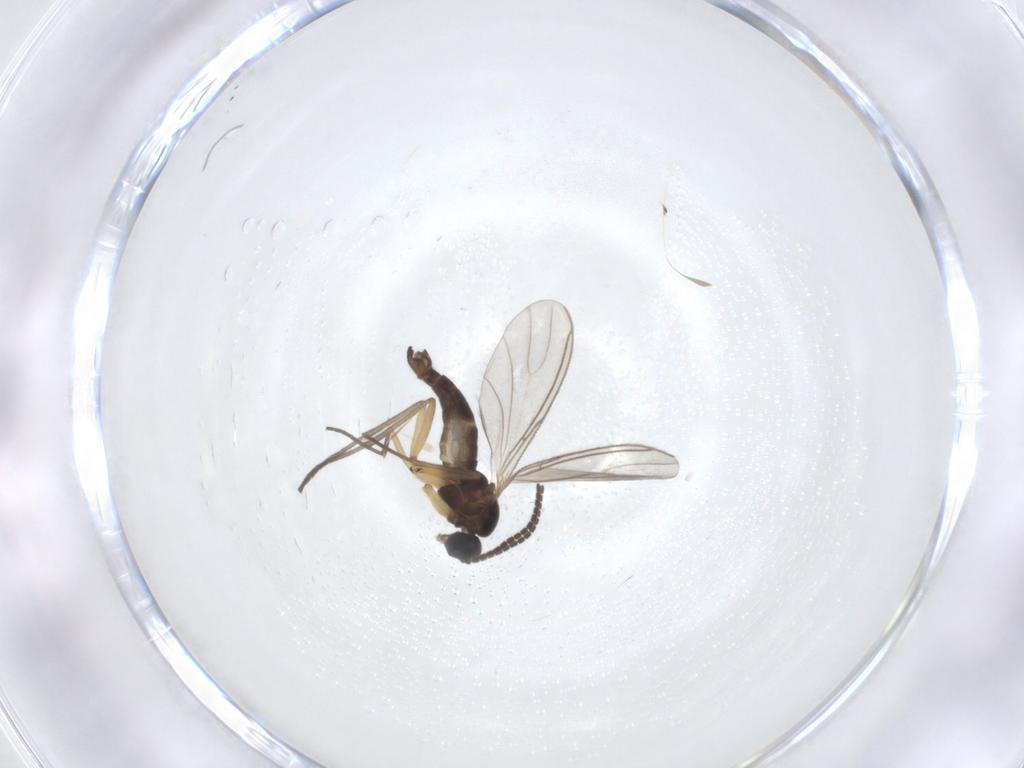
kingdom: Animalia
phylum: Arthropoda
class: Insecta
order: Diptera
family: Sciaridae
